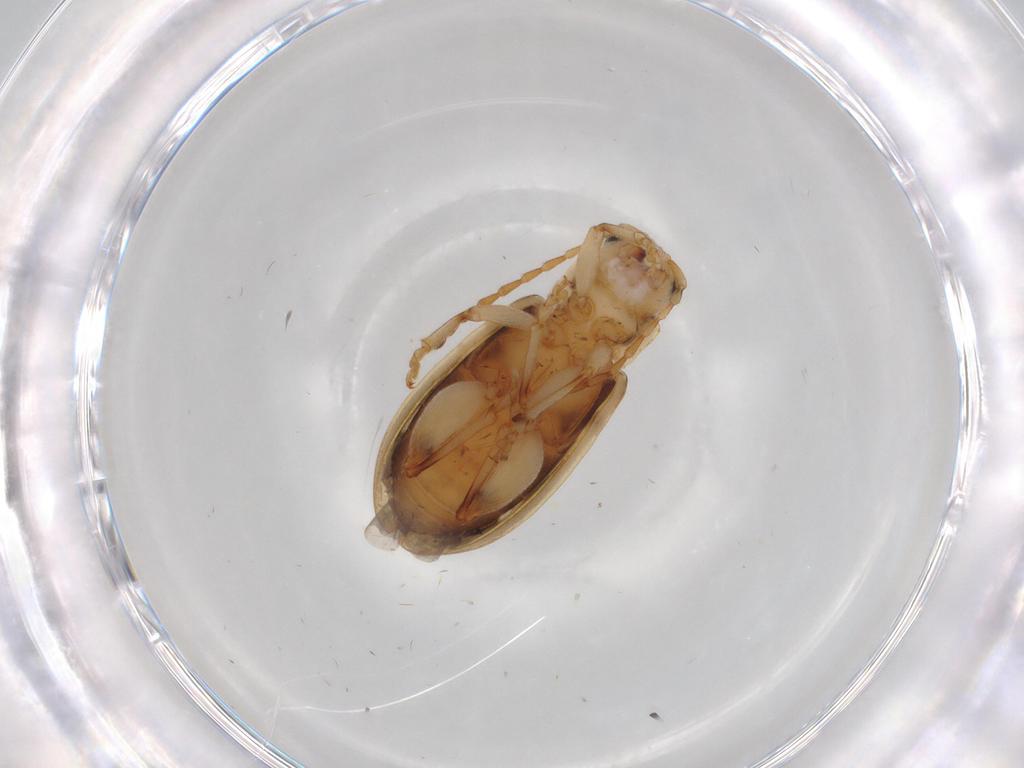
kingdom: Animalia
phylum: Arthropoda
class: Insecta
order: Coleoptera
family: Chrysomelidae
